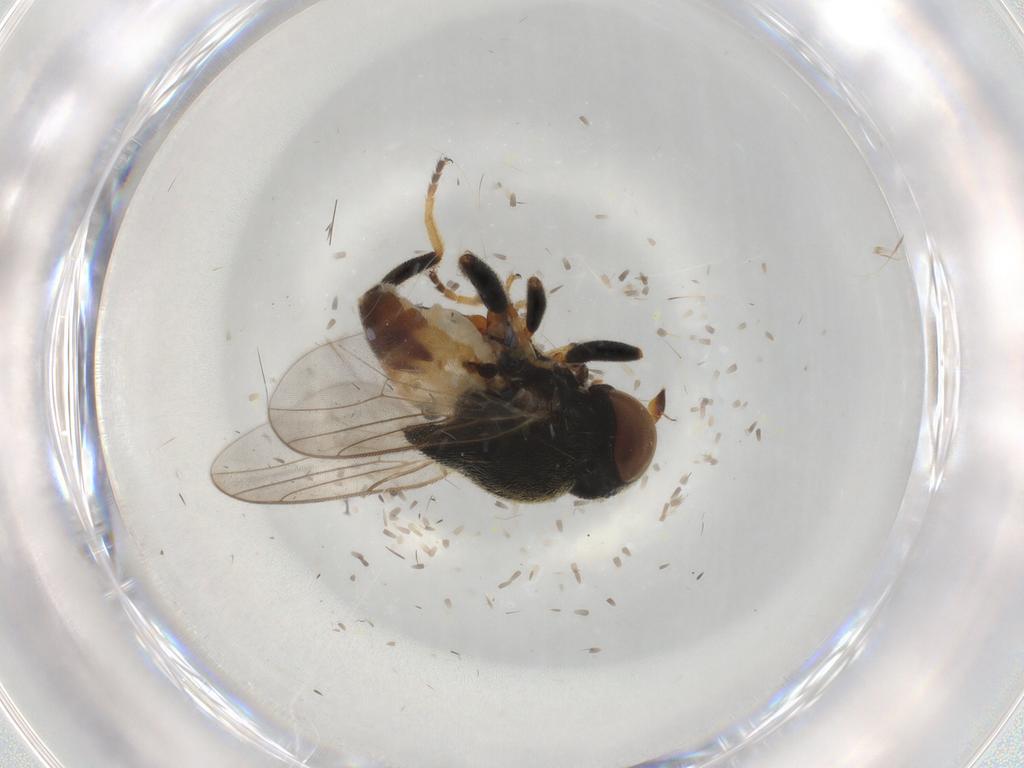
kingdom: Animalia
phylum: Arthropoda
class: Insecta
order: Diptera
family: Chloropidae
